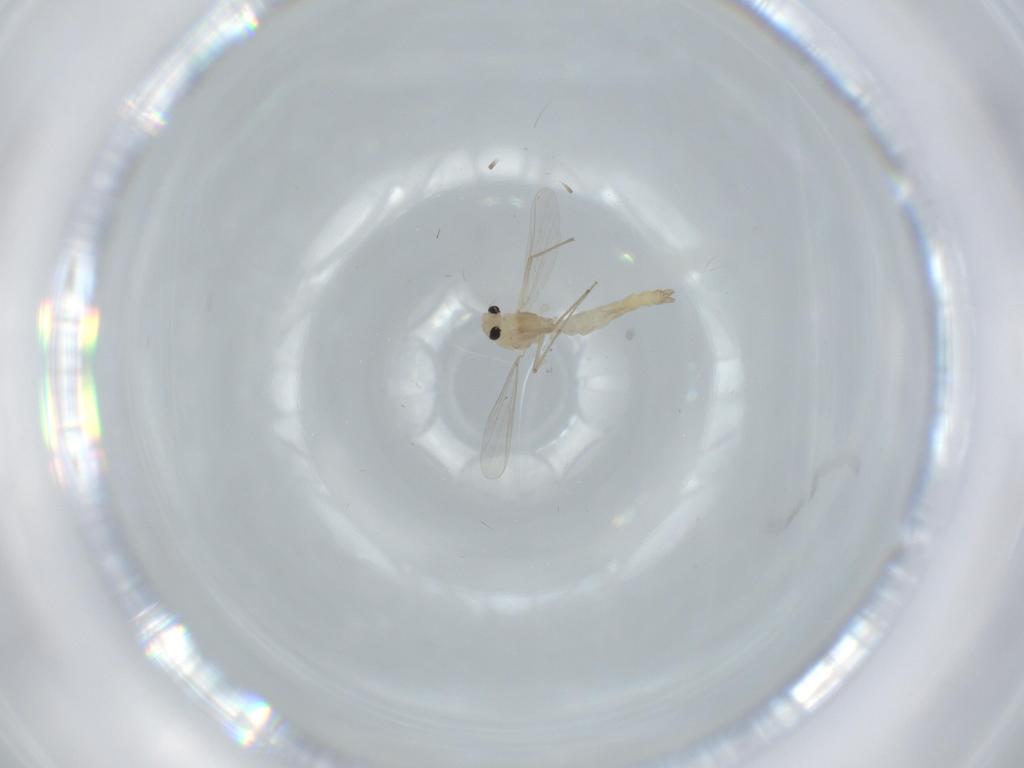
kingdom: Animalia
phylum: Arthropoda
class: Insecta
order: Diptera
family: Chironomidae
